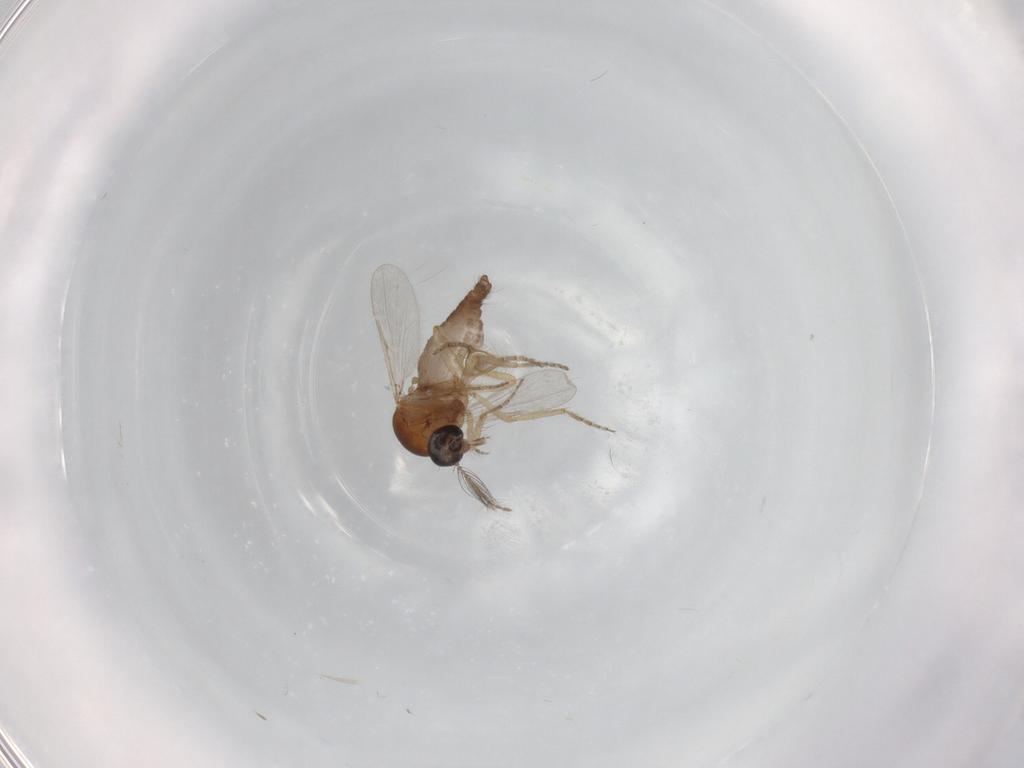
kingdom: Animalia
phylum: Arthropoda
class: Insecta
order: Diptera
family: Ceratopogonidae
